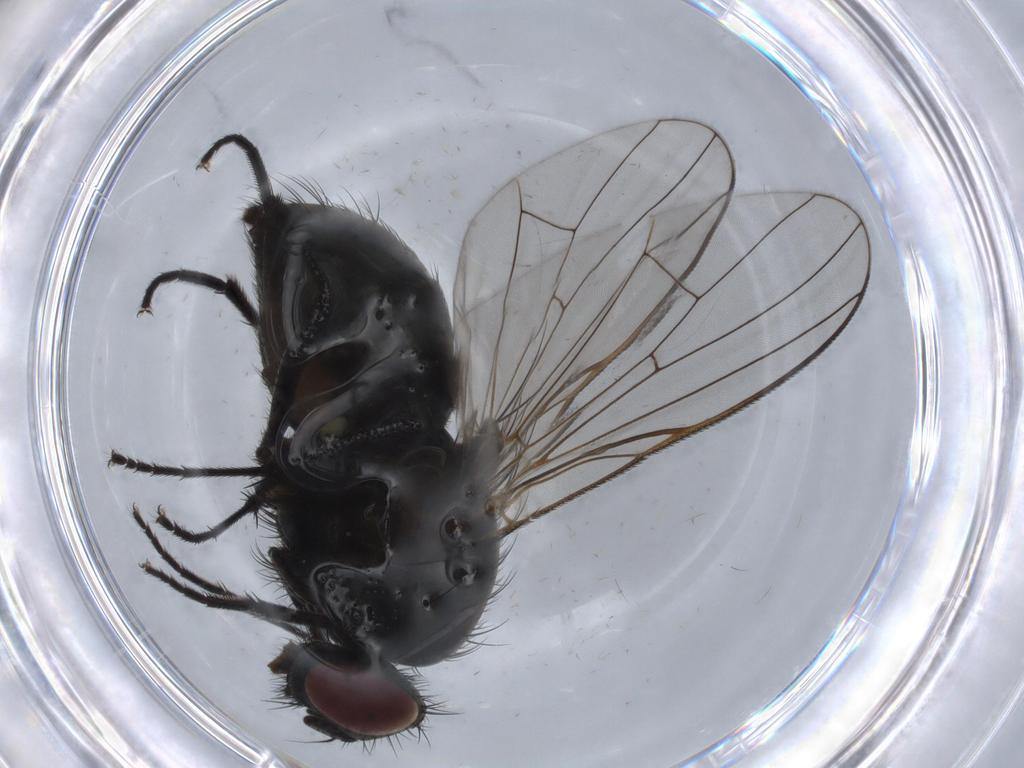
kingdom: Animalia
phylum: Arthropoda
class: Insecta
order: Diptera
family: Muscidae
